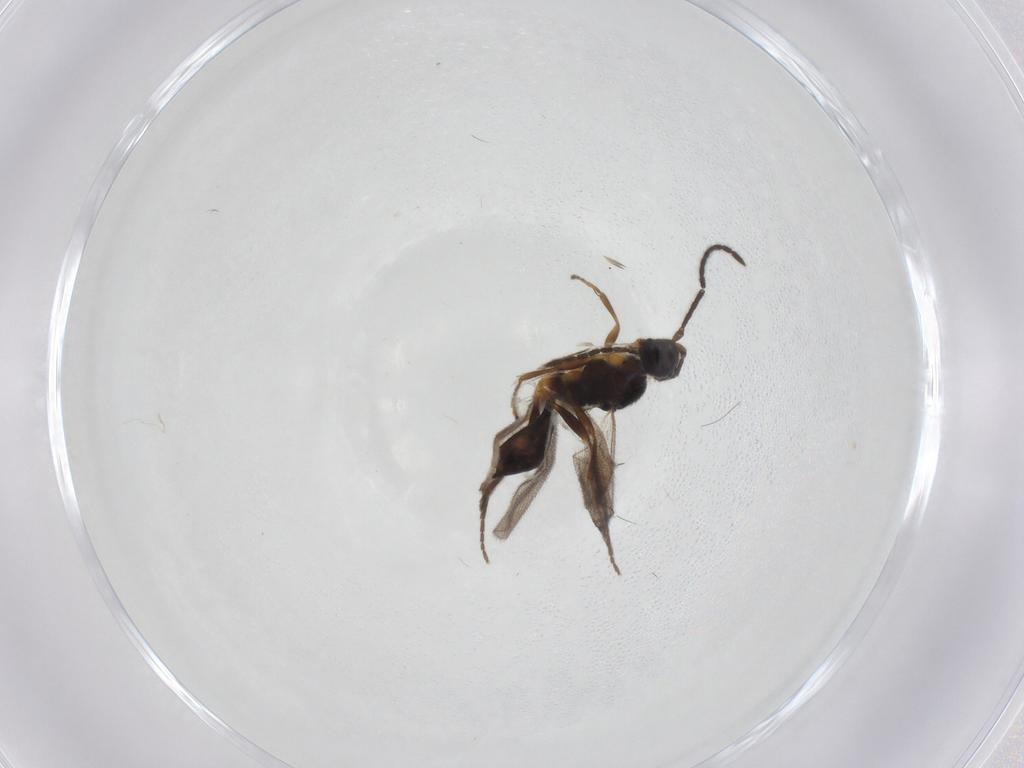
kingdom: Animalia
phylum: Arthropoda
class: Insecta
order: Hymenoptera
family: Proctotrupidae
